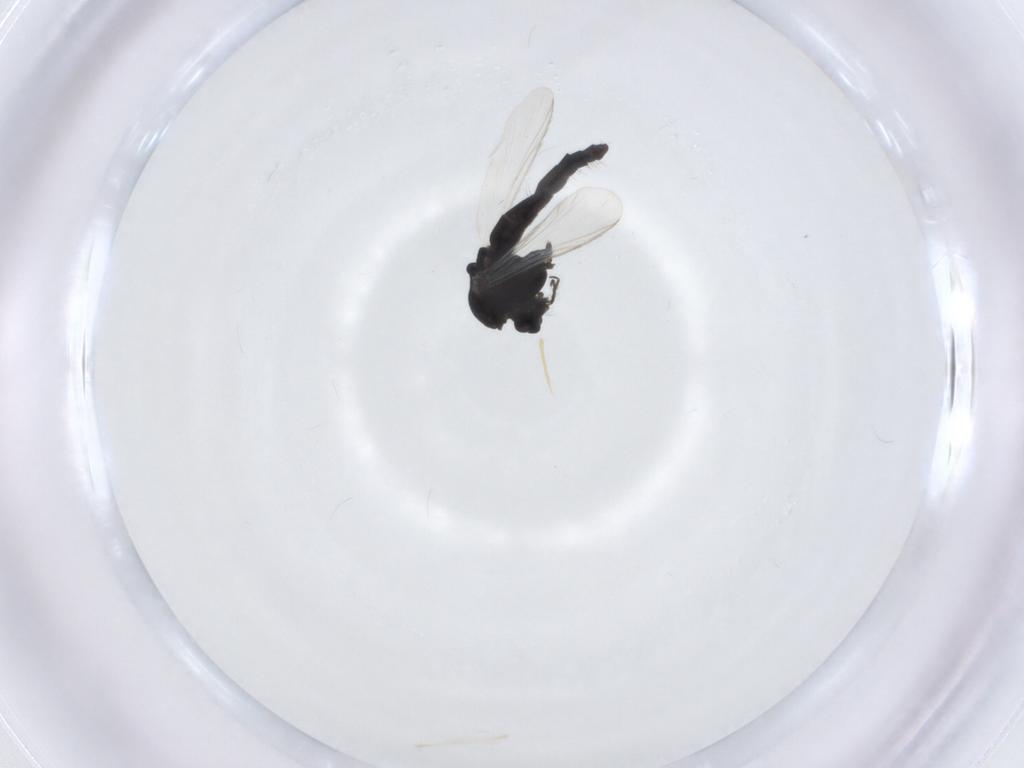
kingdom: Animalia
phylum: Arthropoda
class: Insecta
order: Diptera
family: Chironomidae
